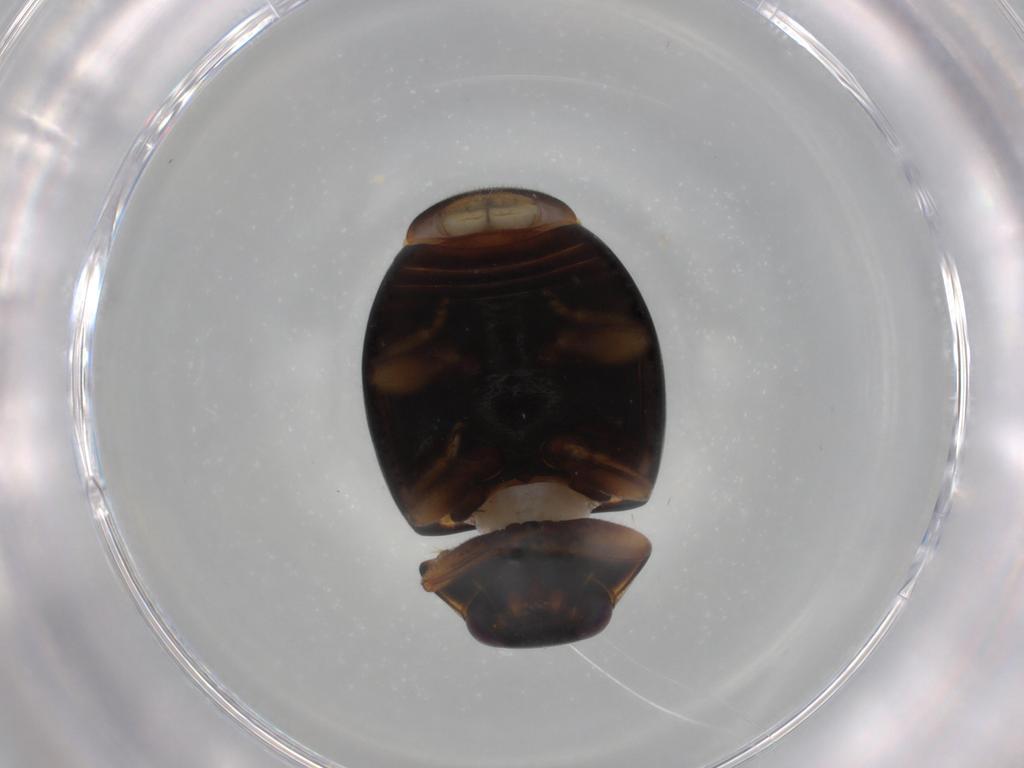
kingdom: Animalia
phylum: Arthropoda
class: Insecta
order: Coleoptera
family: Coccinellidae
